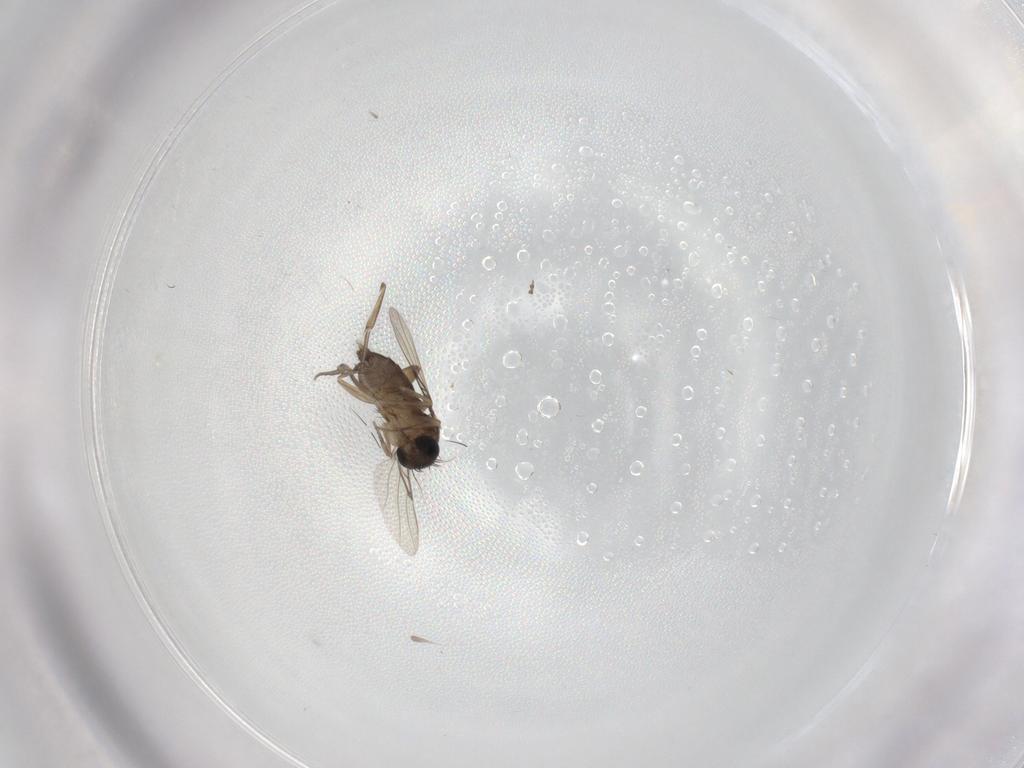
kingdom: Animalia
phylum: Arthropoda
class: Insecta
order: Diptera
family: Phoridae
